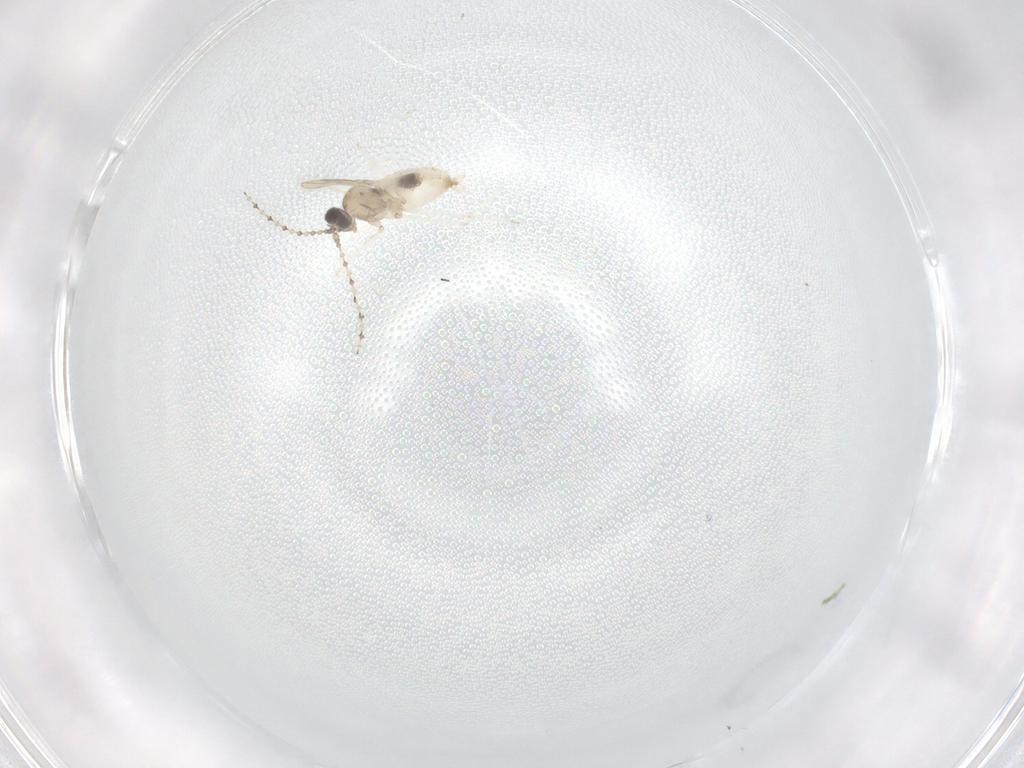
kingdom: Animalia
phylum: Arthropoda
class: Insecta
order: Diptera
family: Cecidomyiidae
